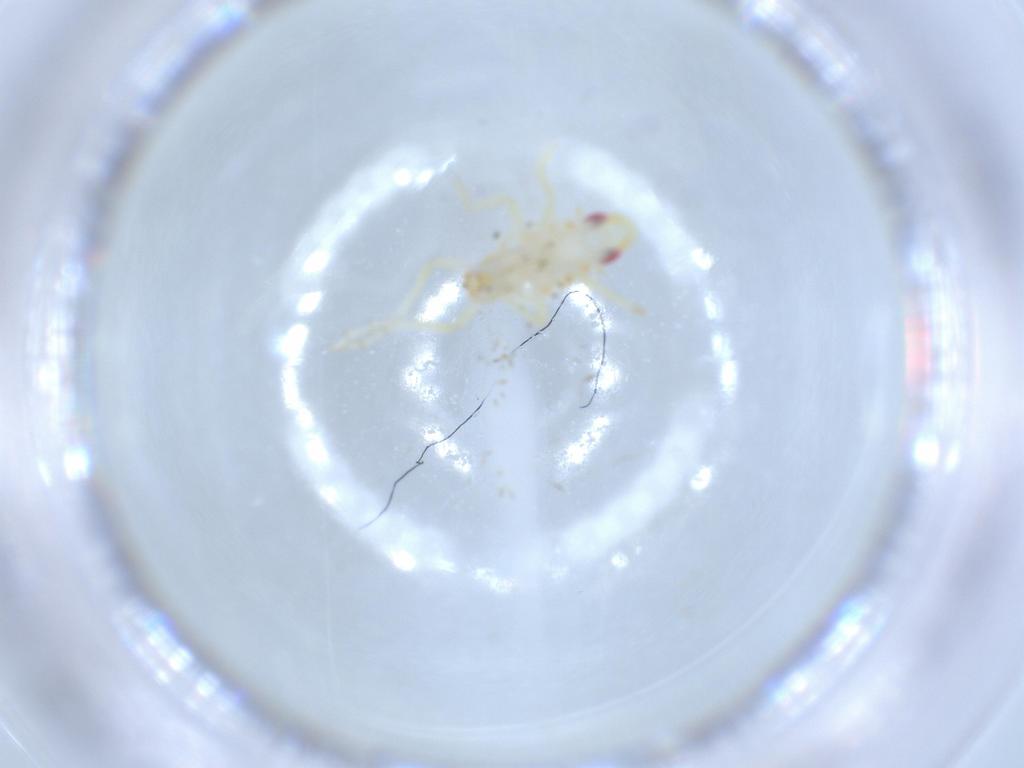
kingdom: Animalia
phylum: Arthropoda
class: Insecta
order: Hemiptera
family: Tropiduchidae
